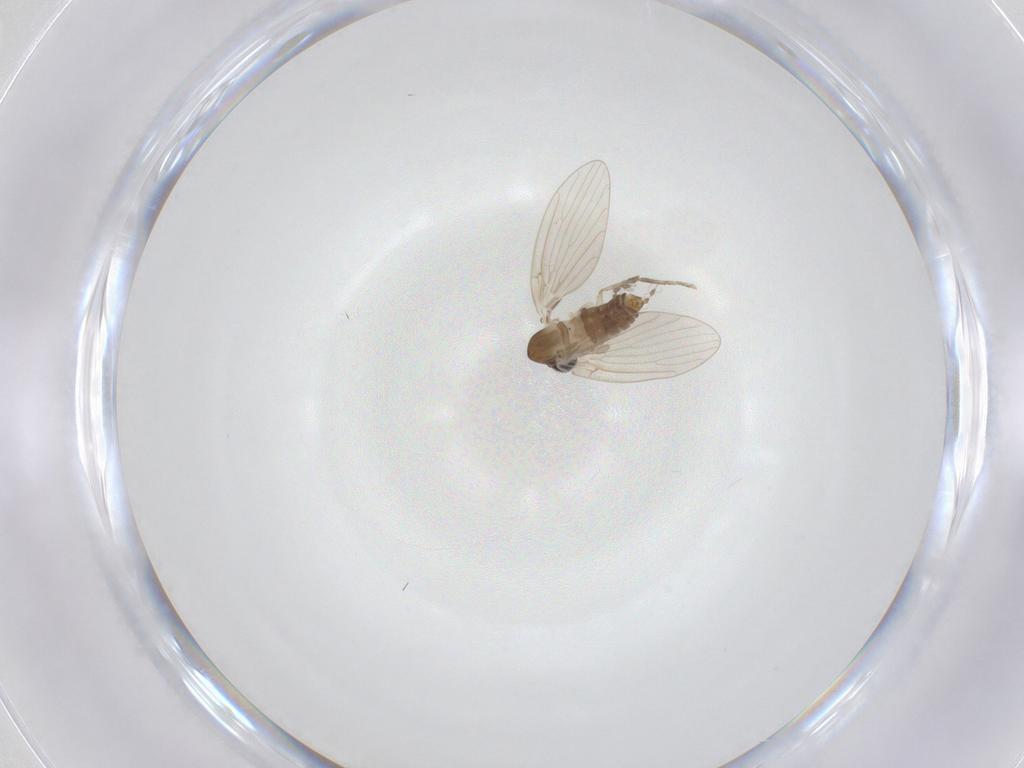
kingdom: Animalia
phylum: Arthropoda
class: Insecta
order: Diptera
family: Psychodidae
